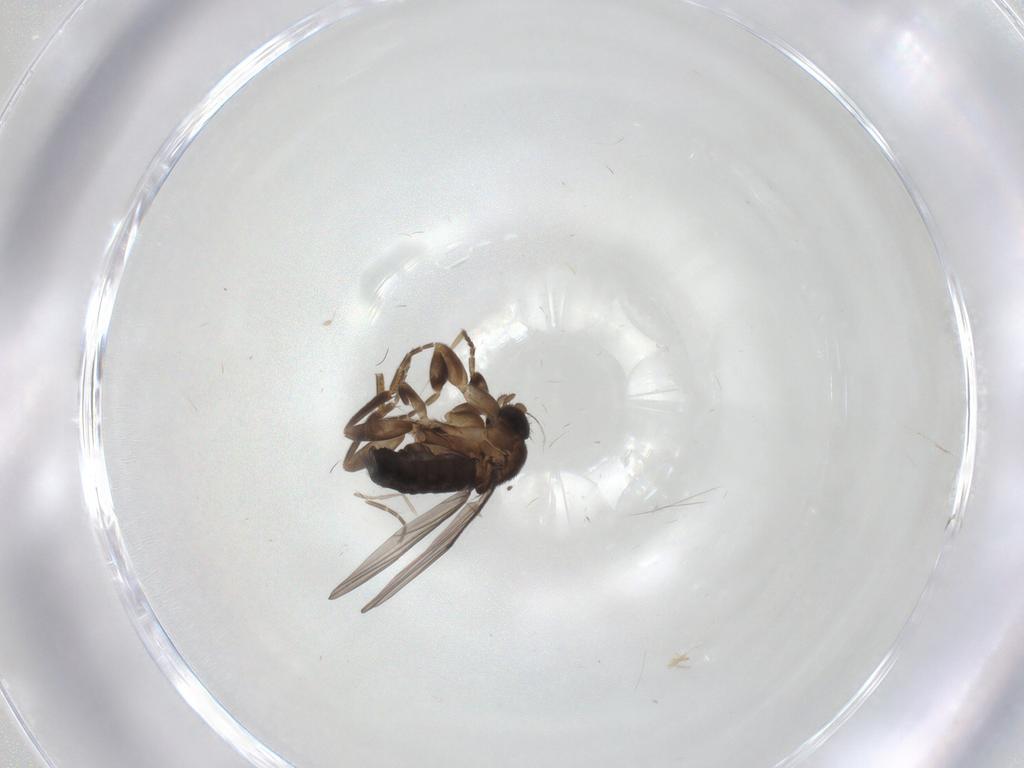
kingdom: Animalia
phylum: Arthropoda
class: Insecta
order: Diptera
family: Phoridae
